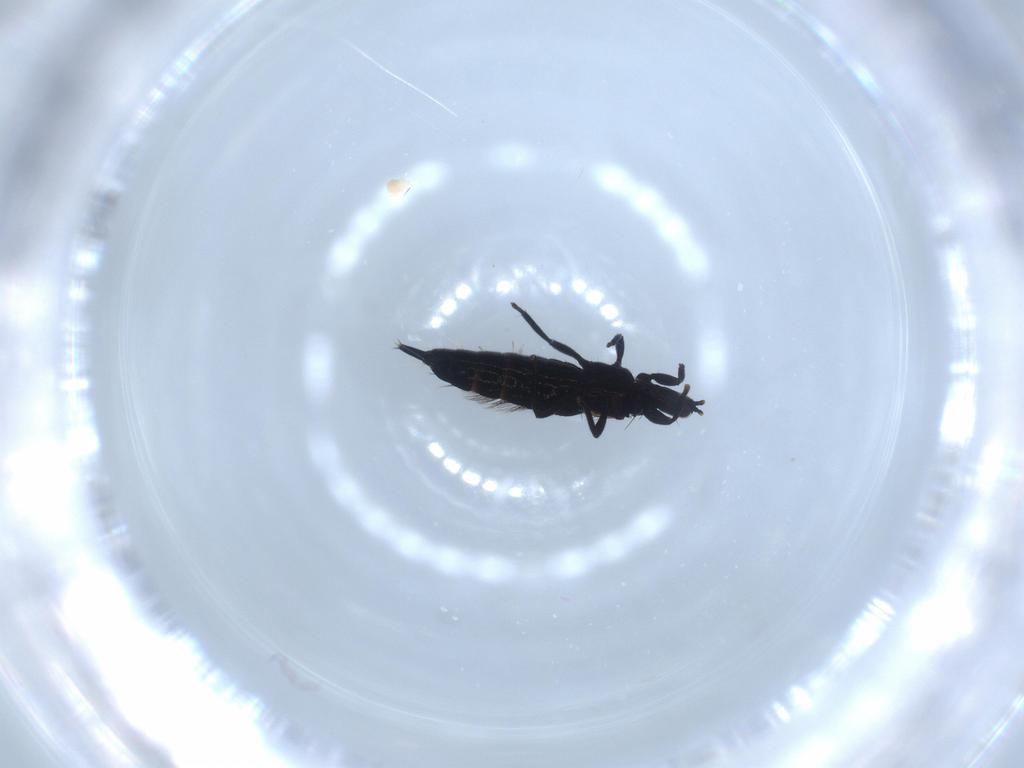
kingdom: Animalia
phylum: Arthropoda
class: Insecta
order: Thysanoptera
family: Phlaeothripidae
